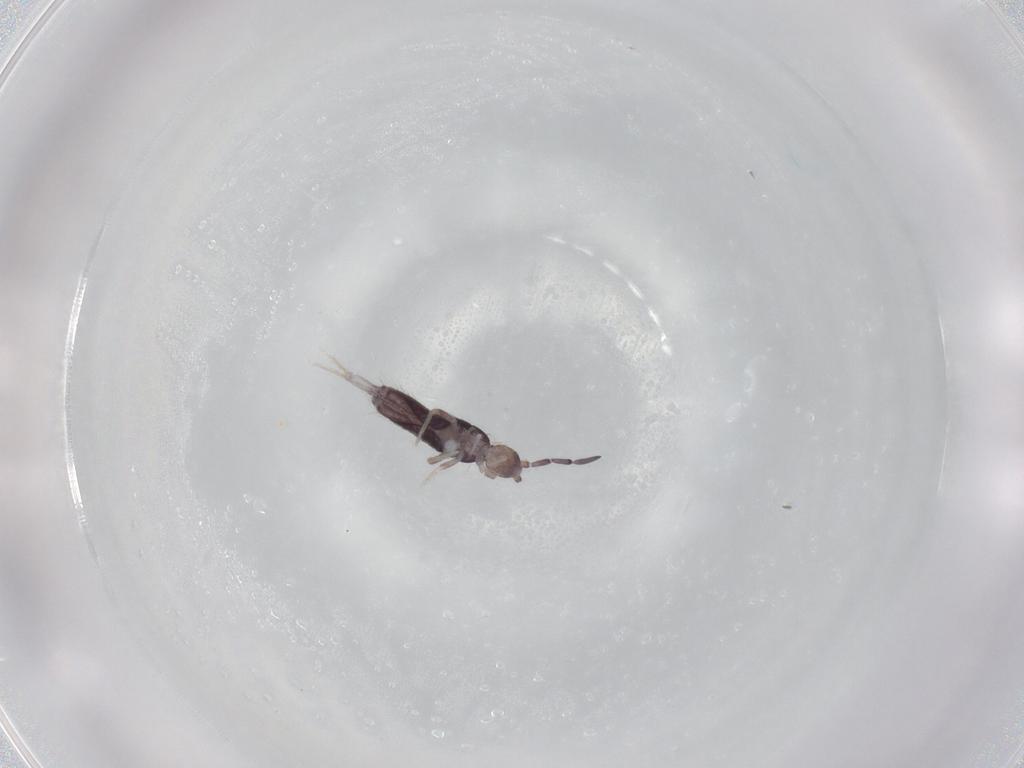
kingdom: Animalia
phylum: Arthropoda
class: Collembola
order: Entomobryomorpha
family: Entomobryidae
